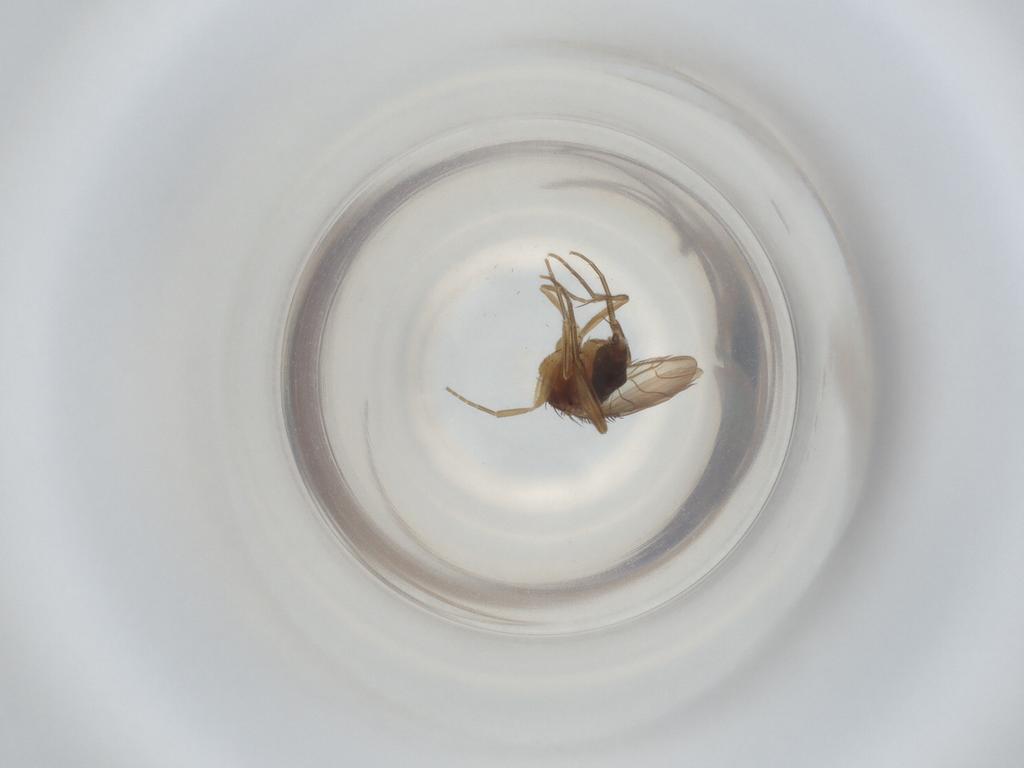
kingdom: Animalia
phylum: Arthropoda
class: Insecta
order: Diptera
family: Phoridae
